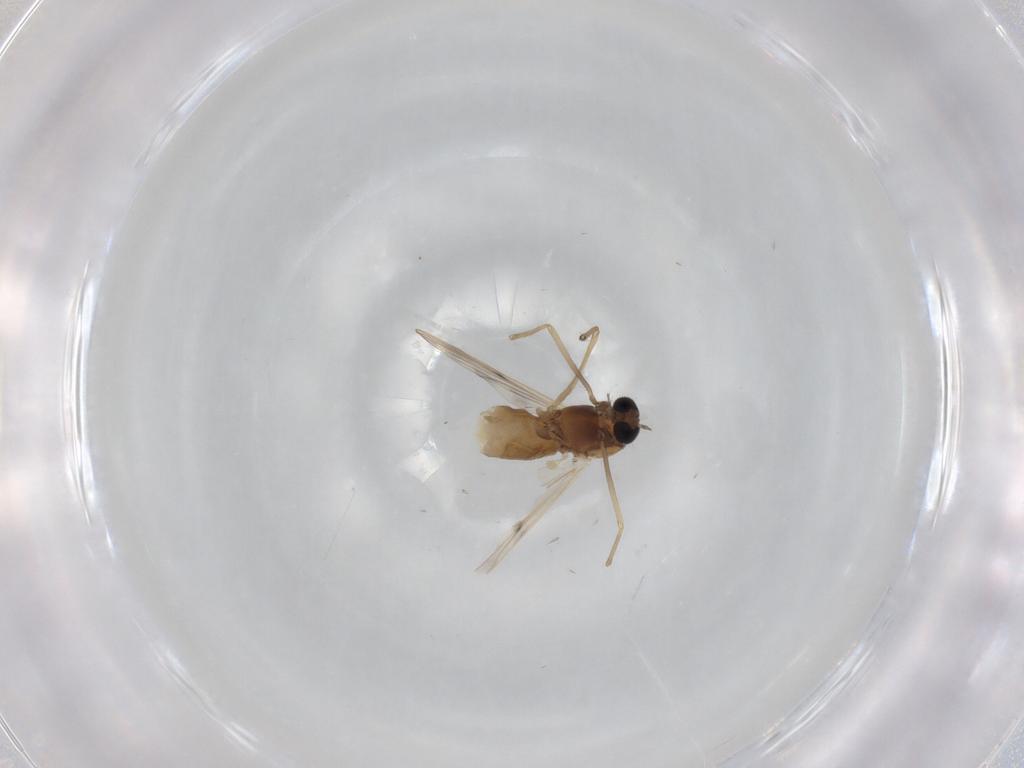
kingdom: Animalia
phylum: Arthropoda
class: Insecta
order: Diptera
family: Chironomidae
